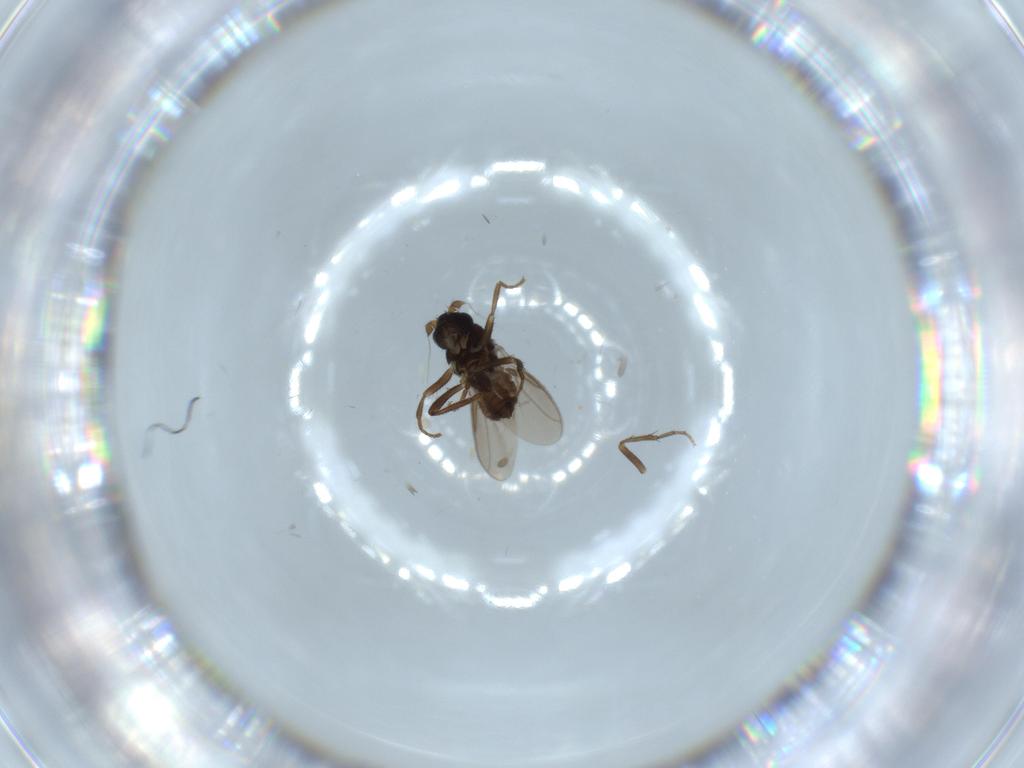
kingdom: Animalia
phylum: Arthropoda
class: Insecta
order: Diptera
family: Sphaeroceridae
